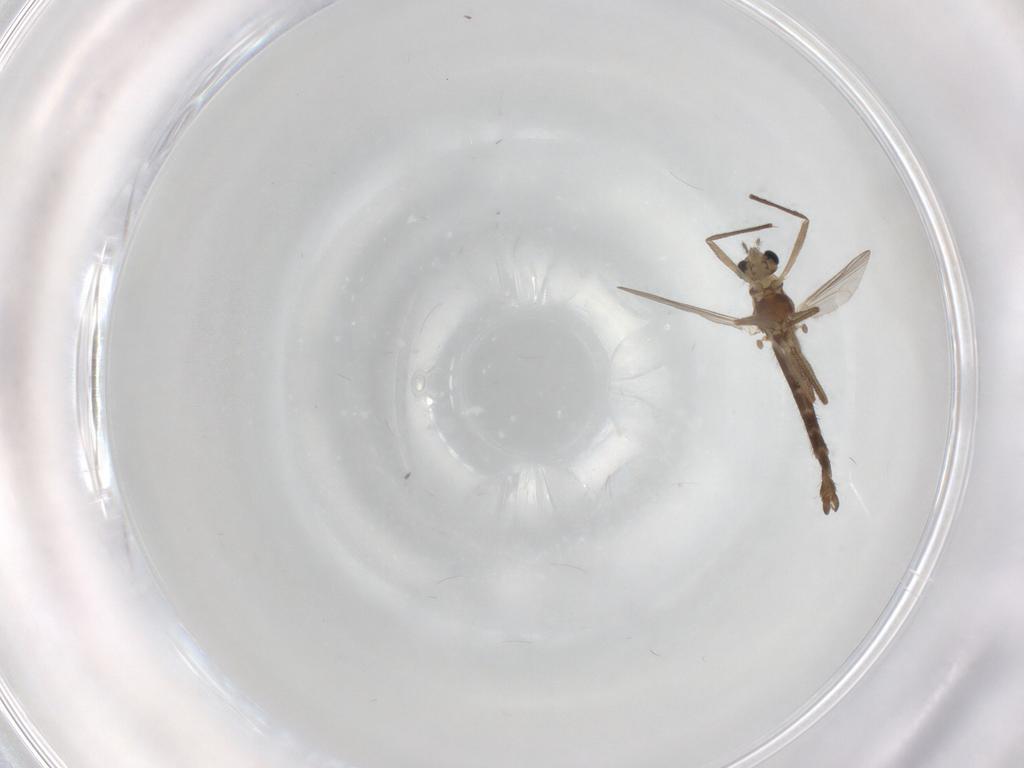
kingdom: Animalia
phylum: Arthropoda
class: Insecta
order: Diptera
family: Chironomidae
